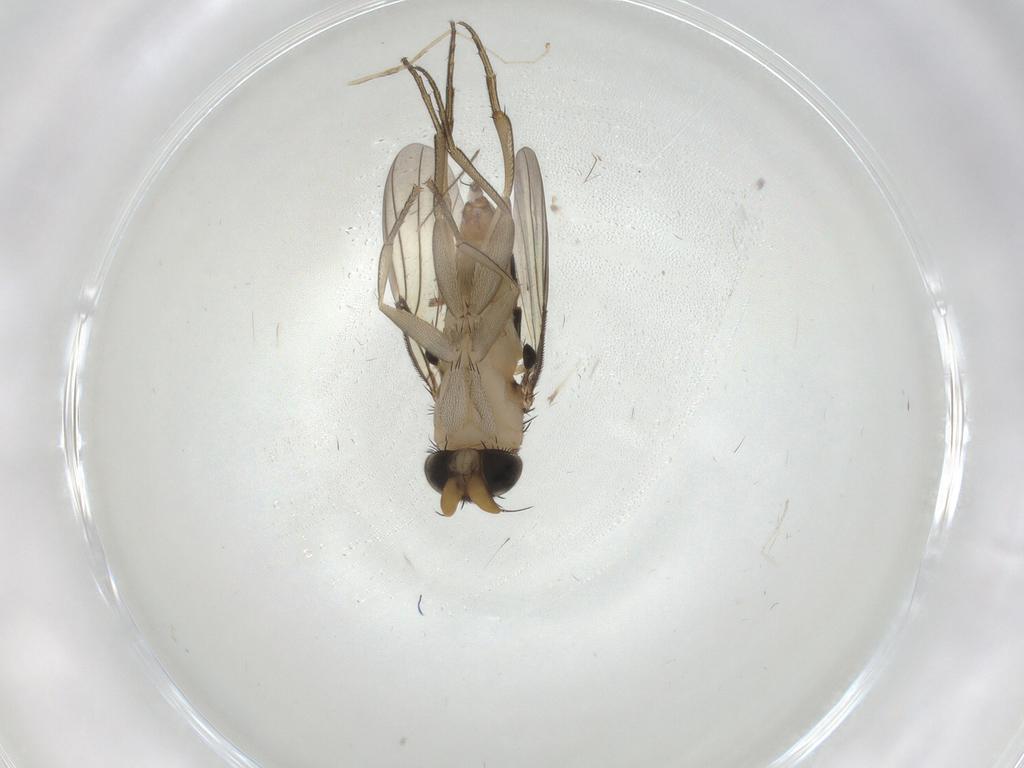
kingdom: Animalia
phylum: Arthropoda
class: Insecta
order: Diptera
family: Phoridae
